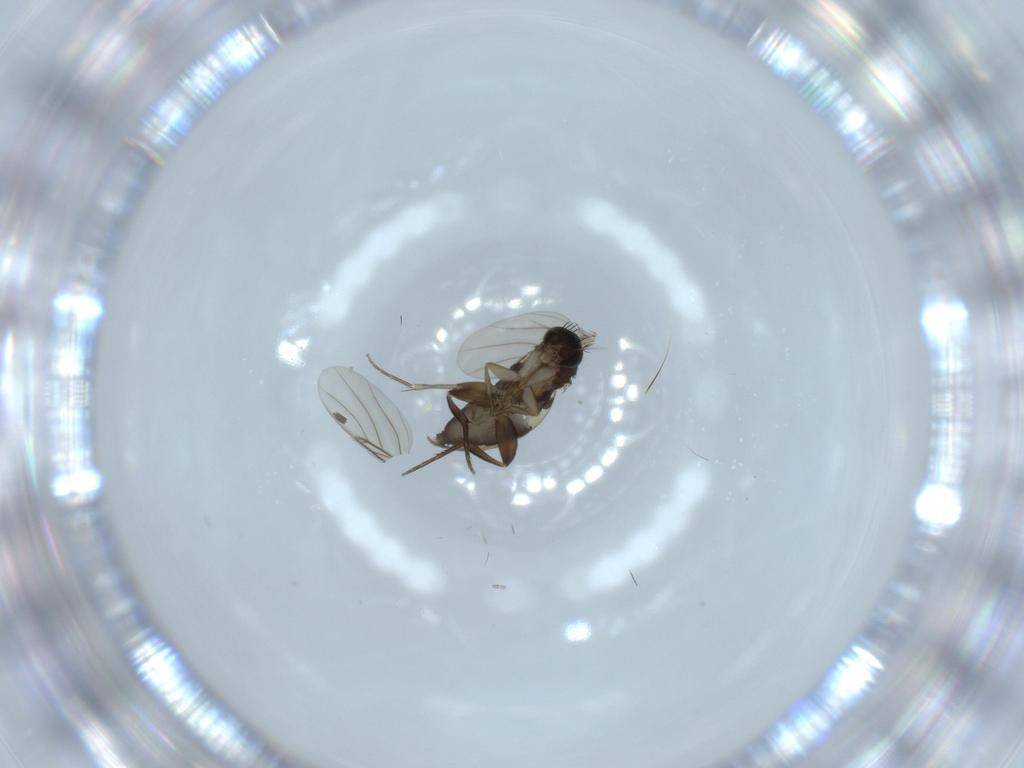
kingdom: Animalia
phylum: Arthropoda
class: Insecta
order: Diptera
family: Phoridae
